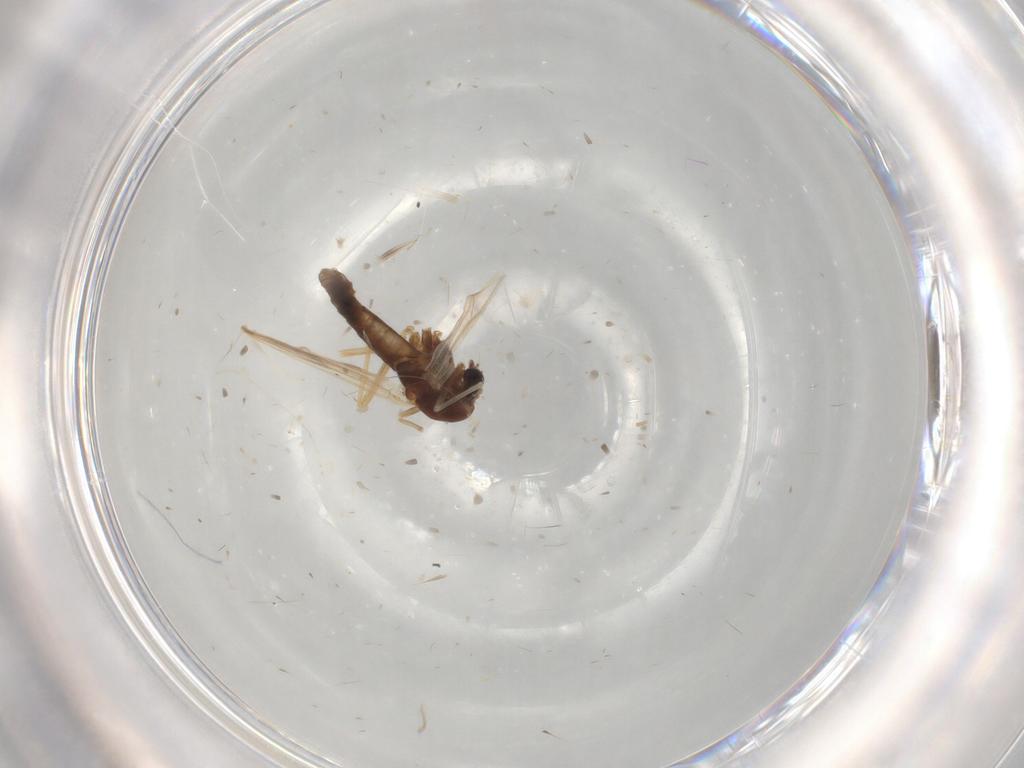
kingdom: Animalia
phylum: Arthropoda
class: Insecta
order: Diptera
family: Chironomidae
